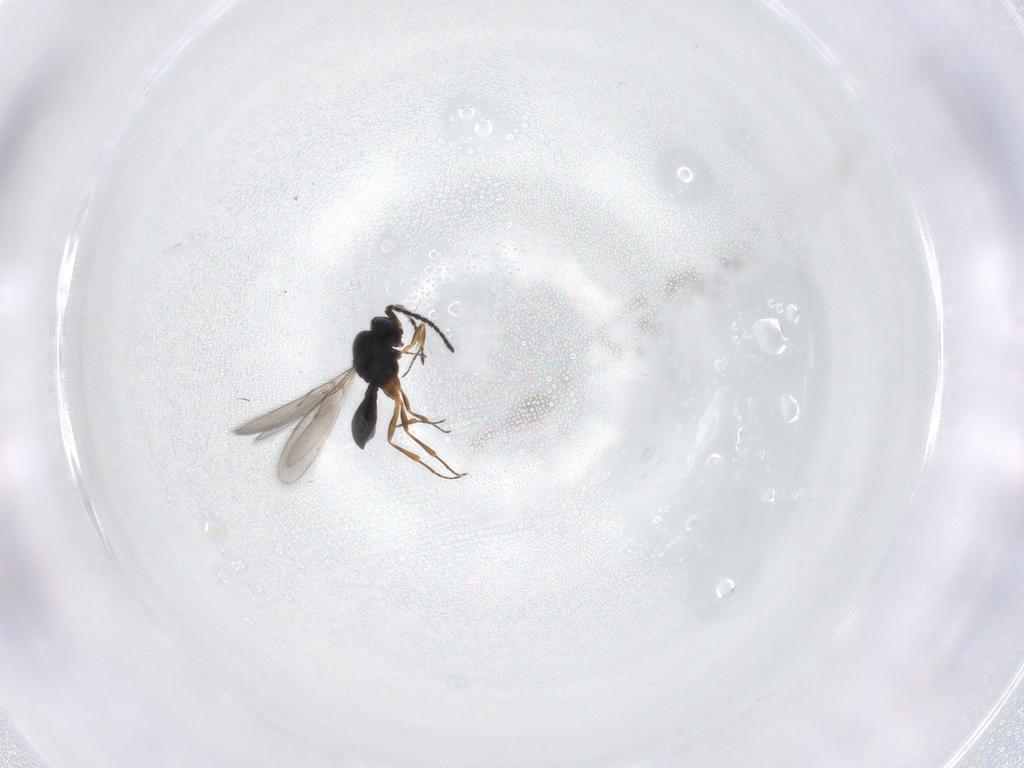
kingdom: Animalia
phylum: Arthropoda
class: Insecta
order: Hymenoptera
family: Scelionidae
